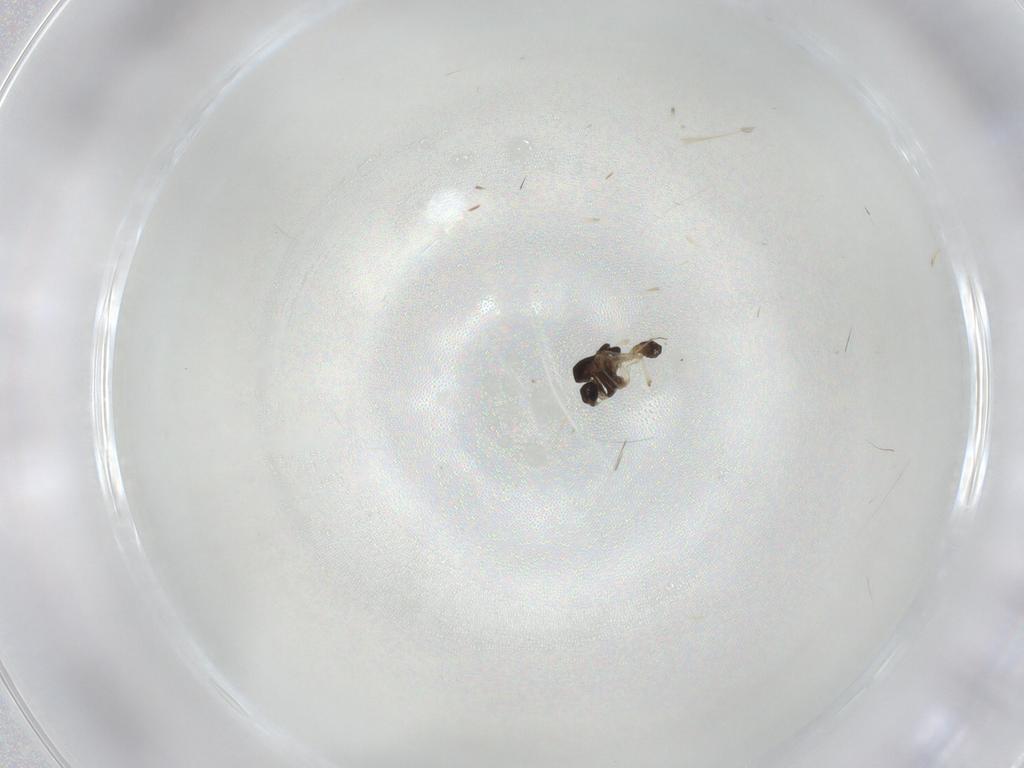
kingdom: Animalia
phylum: Arthropoda
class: Insecta
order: Diptera
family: Chironomidae
